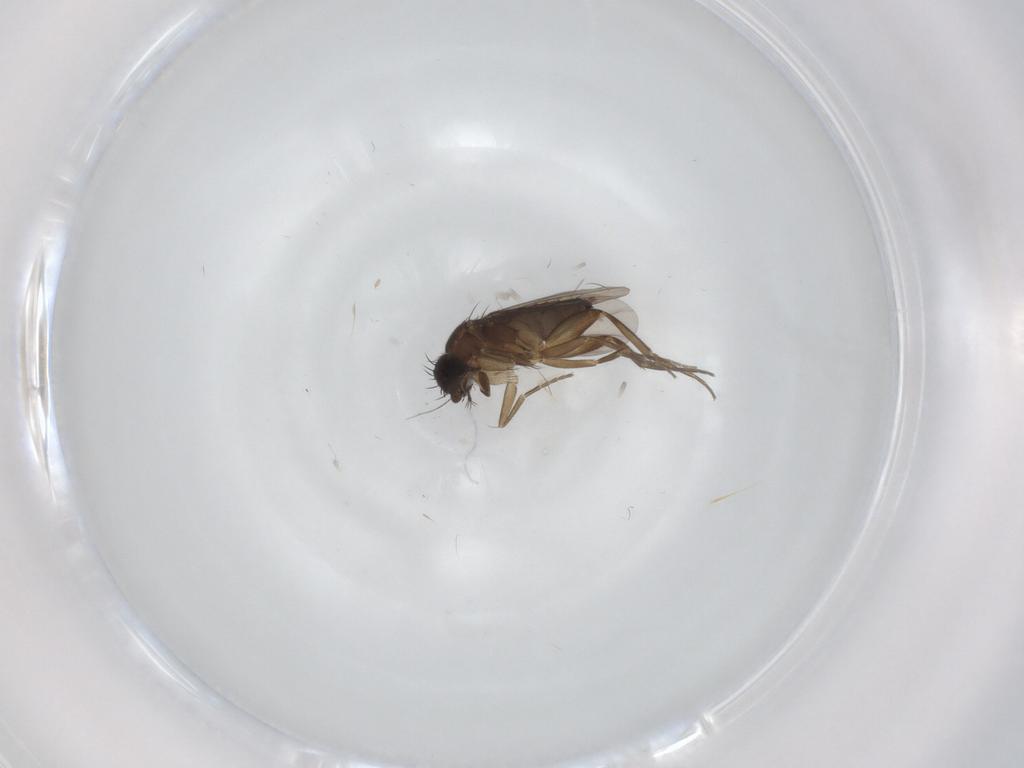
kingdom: Animalia
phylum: Arthropoda
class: Insecta
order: Diptera
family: Phoridae
